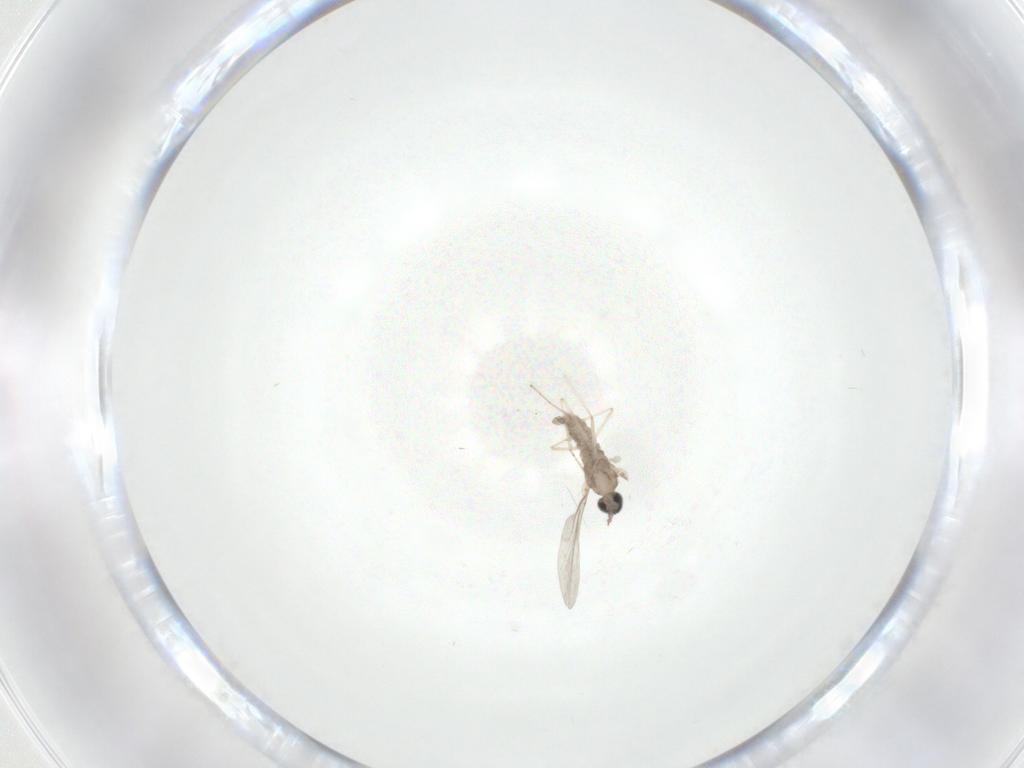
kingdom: Animalia
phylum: Arthropoda
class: Insecta
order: Diptera
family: Cecidomyiidae
